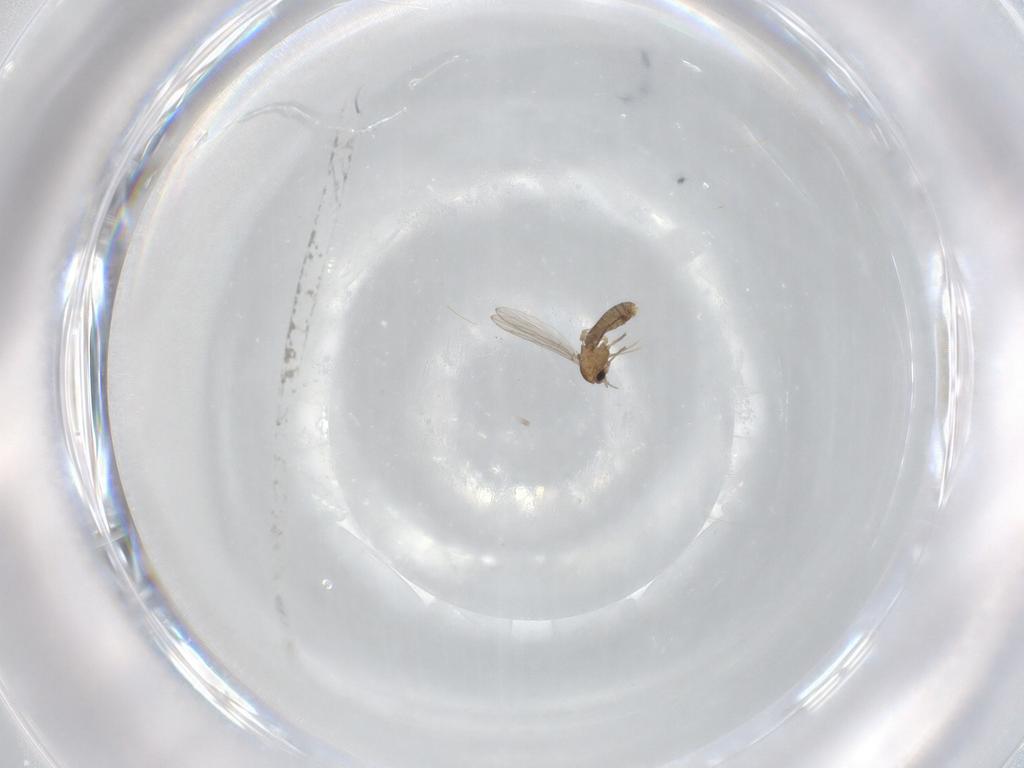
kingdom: Animalia
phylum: Arthropoda
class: Insecta
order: Diptera
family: Chironomidae
